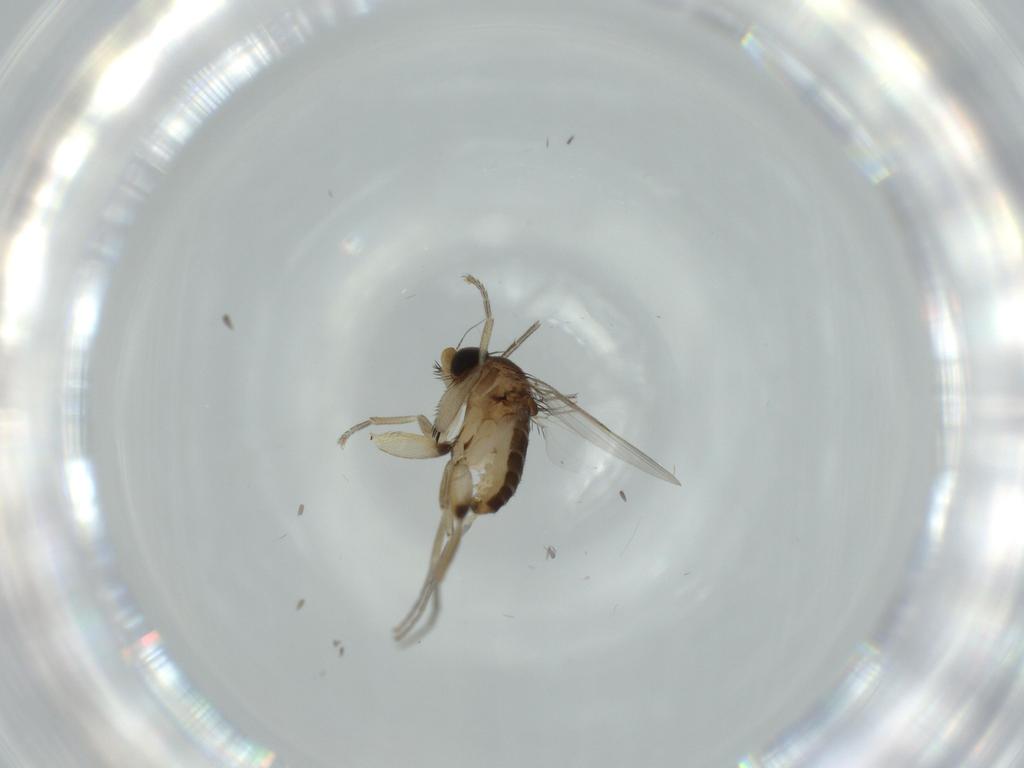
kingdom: Animalia
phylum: Arthropoda
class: Insecta
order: Diptera
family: Phoridae
